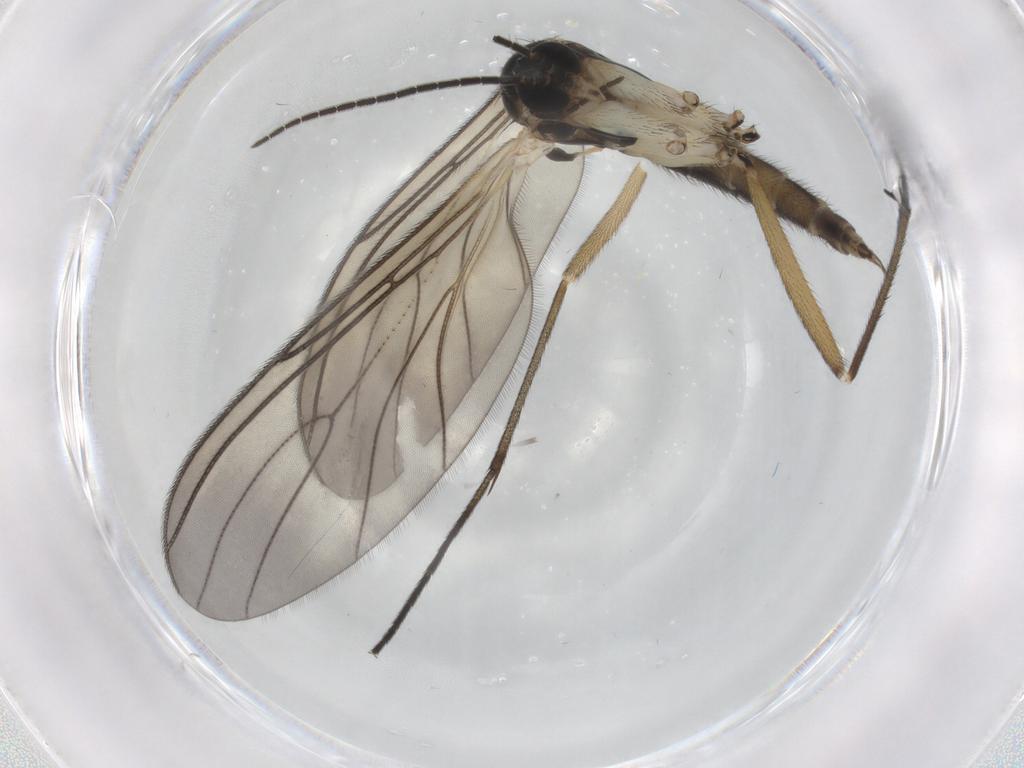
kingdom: Animalia
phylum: Arthropoda
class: Insecta
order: Diptera
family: Sciaridae
